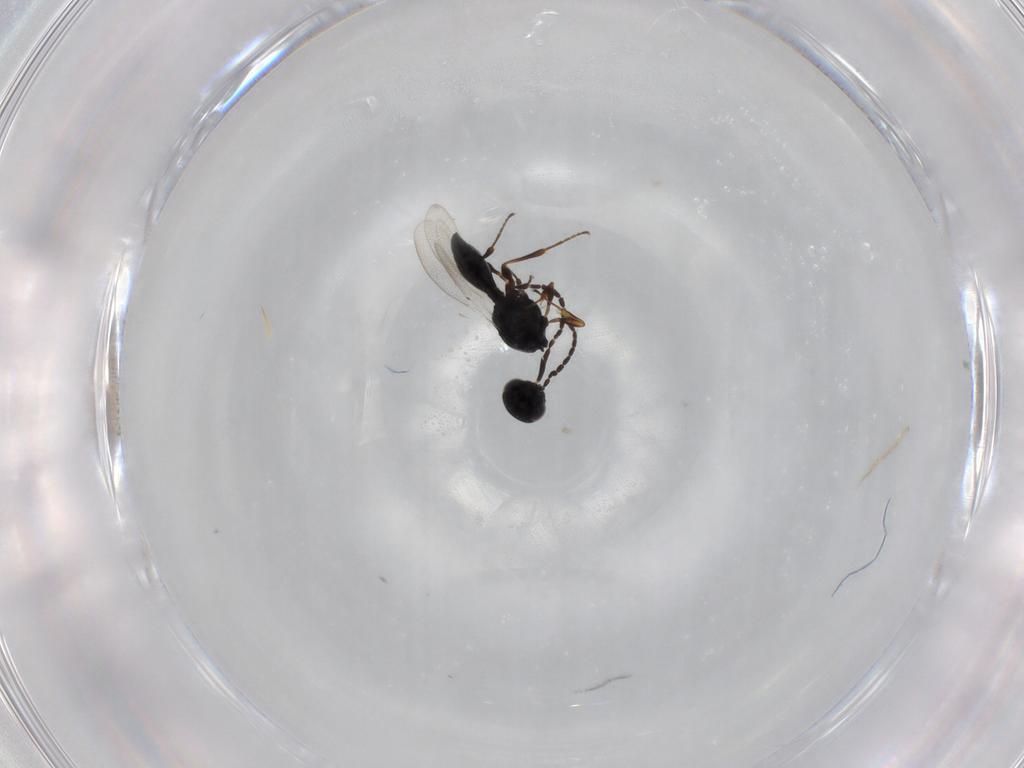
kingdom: Animalia
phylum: Arthropoda
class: Insecta
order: Hymenoptera
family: Platygastridae
